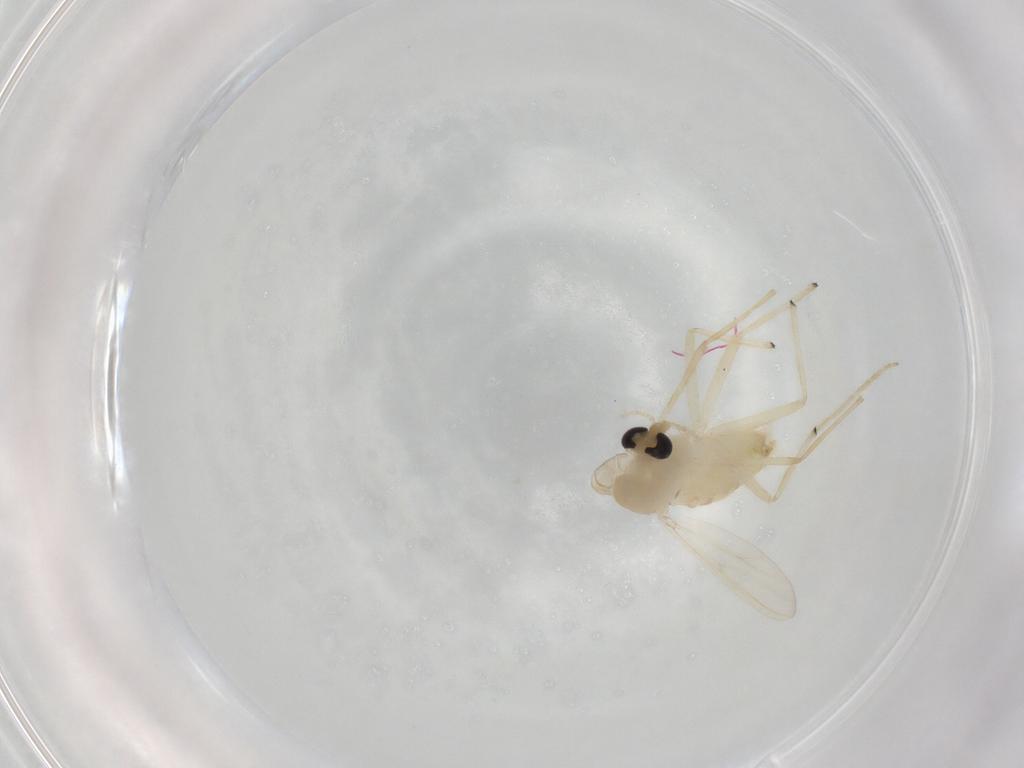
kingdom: Animalia
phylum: Arthropoda
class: Insecta
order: Diptera
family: Chironomidae
